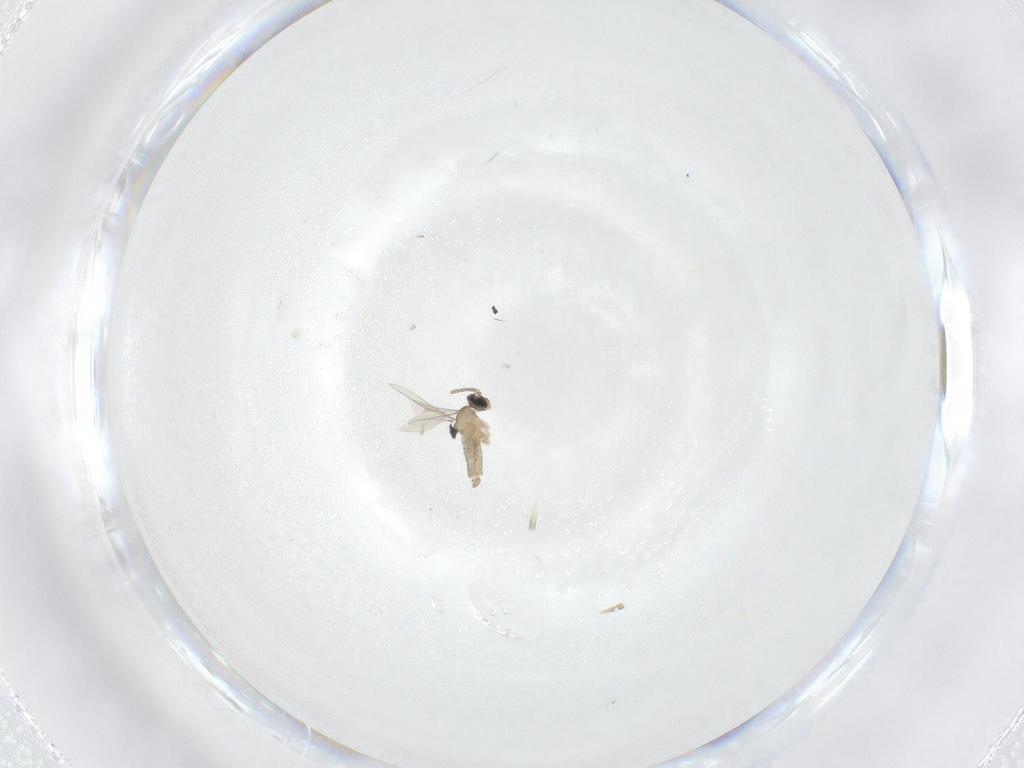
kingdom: Animalia
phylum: Arthropoda
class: Insecta
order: Diptera
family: Cecidomyiidae
